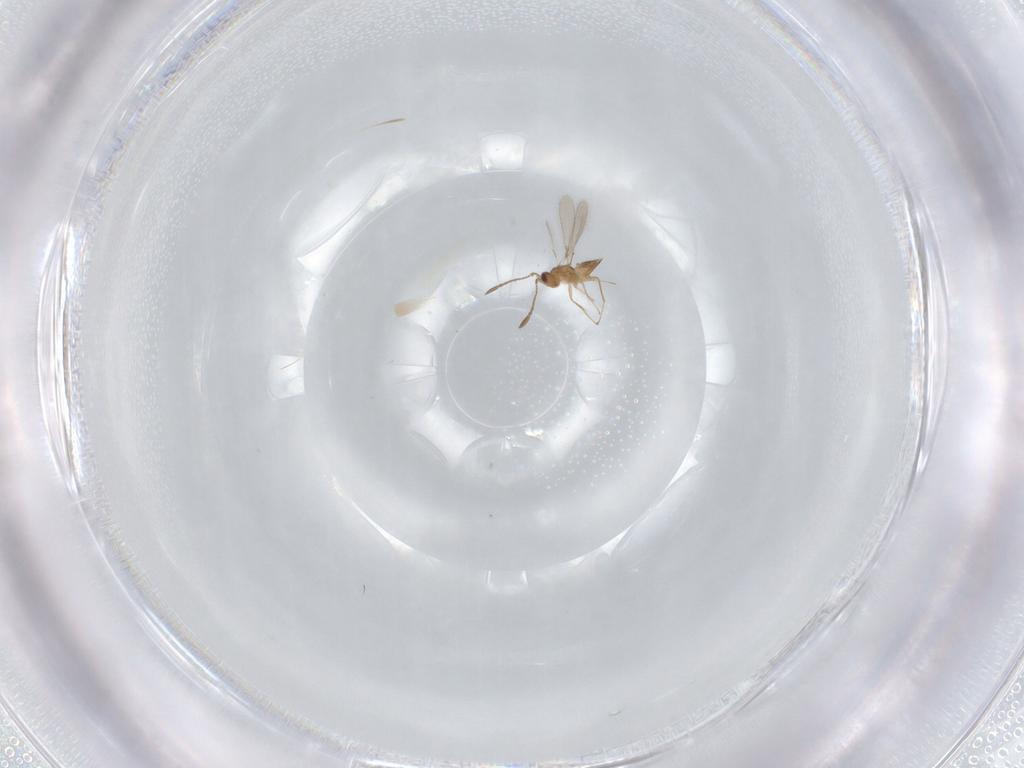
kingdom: Animalia
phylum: Arthropoda
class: Insecta
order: Hymenoptera
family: Mymaridae
